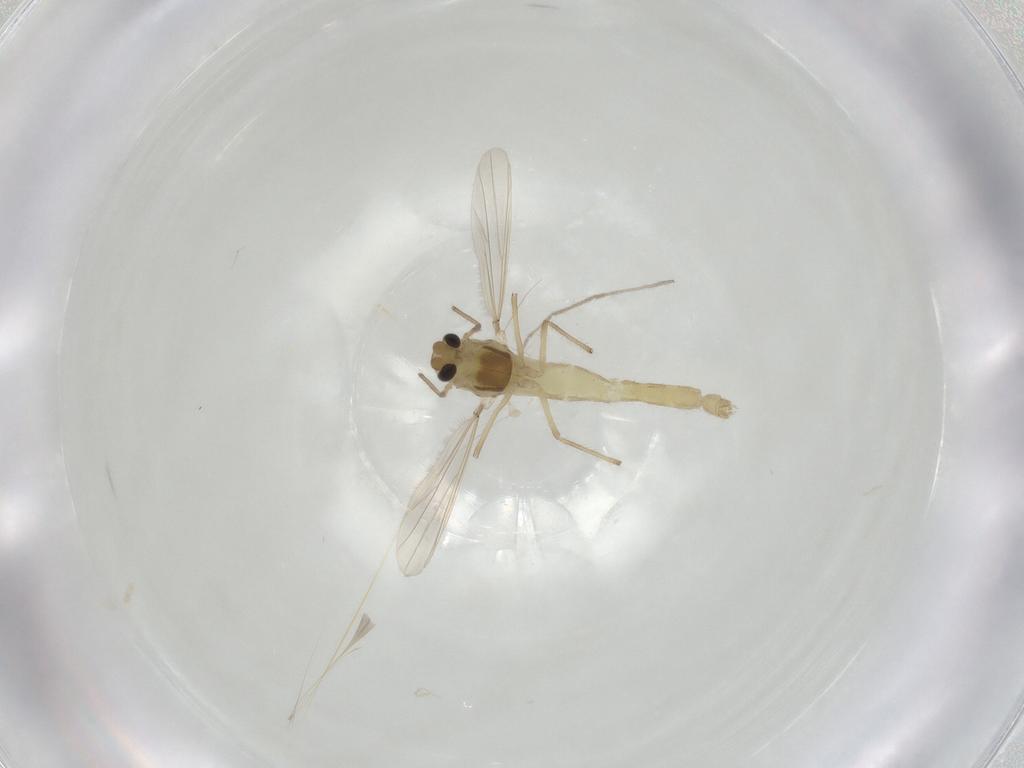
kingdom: Animalia
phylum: Arthropoda
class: Insecta
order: Diptera
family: Chironomidae
